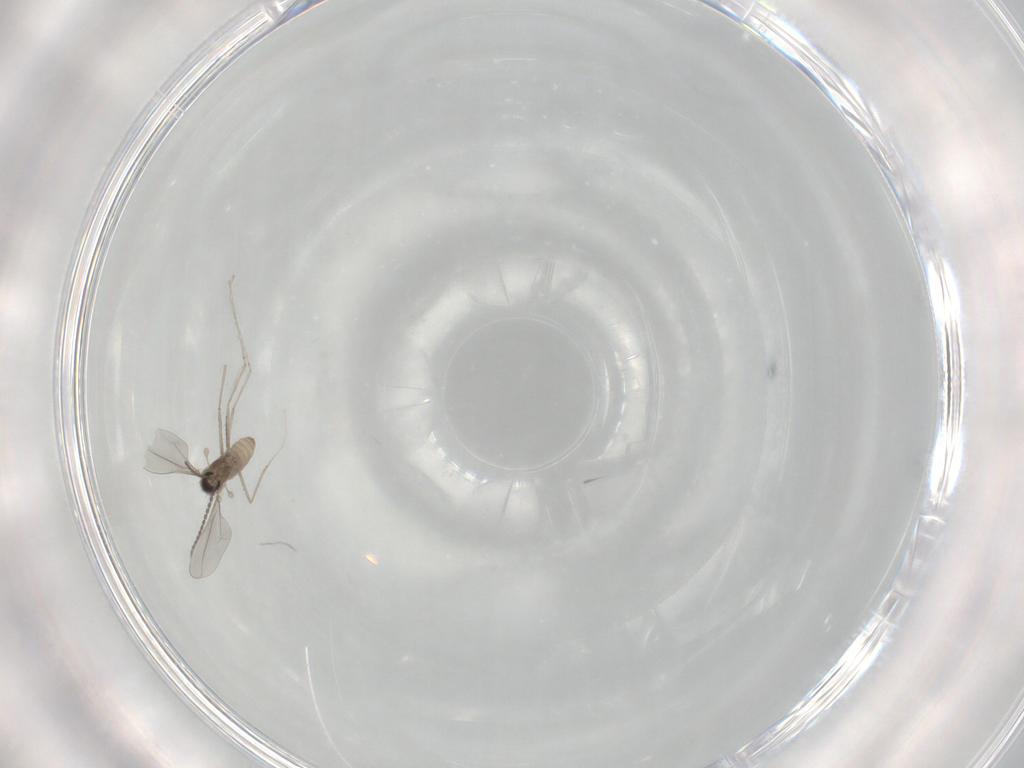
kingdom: Animalia
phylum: Arthropoda
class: Insecta
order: Diptera
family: Cecidomyiidae
